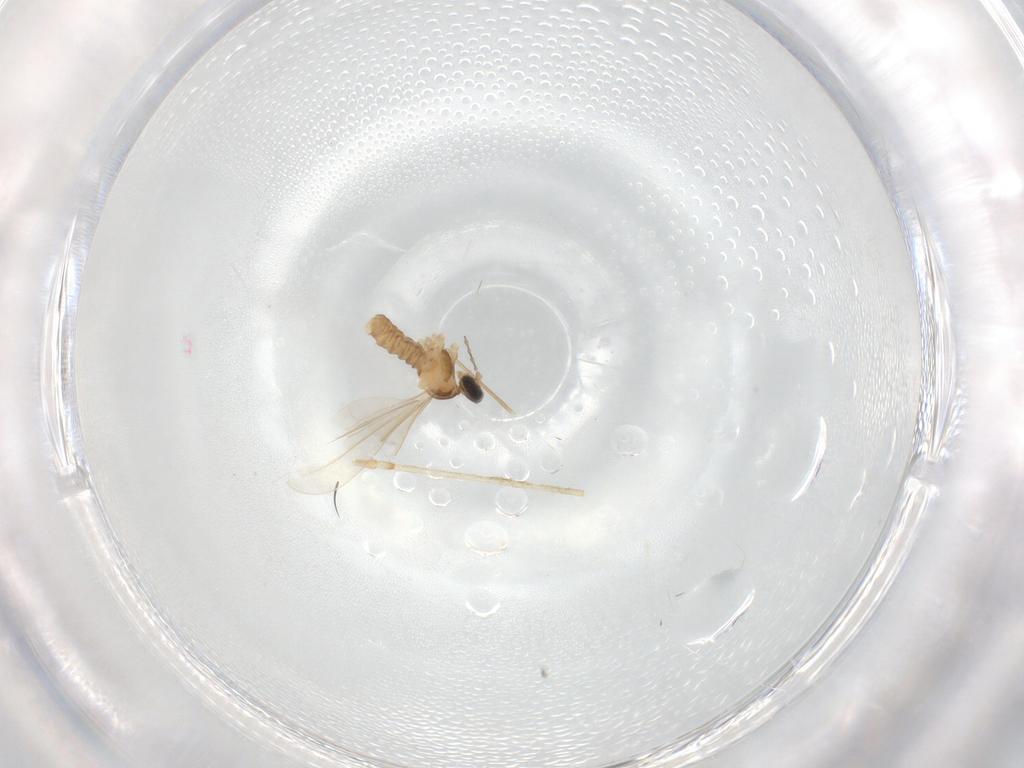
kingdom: Animalia
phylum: Arthropoda
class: Insecta
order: Diptera
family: Cecidomyiidae
